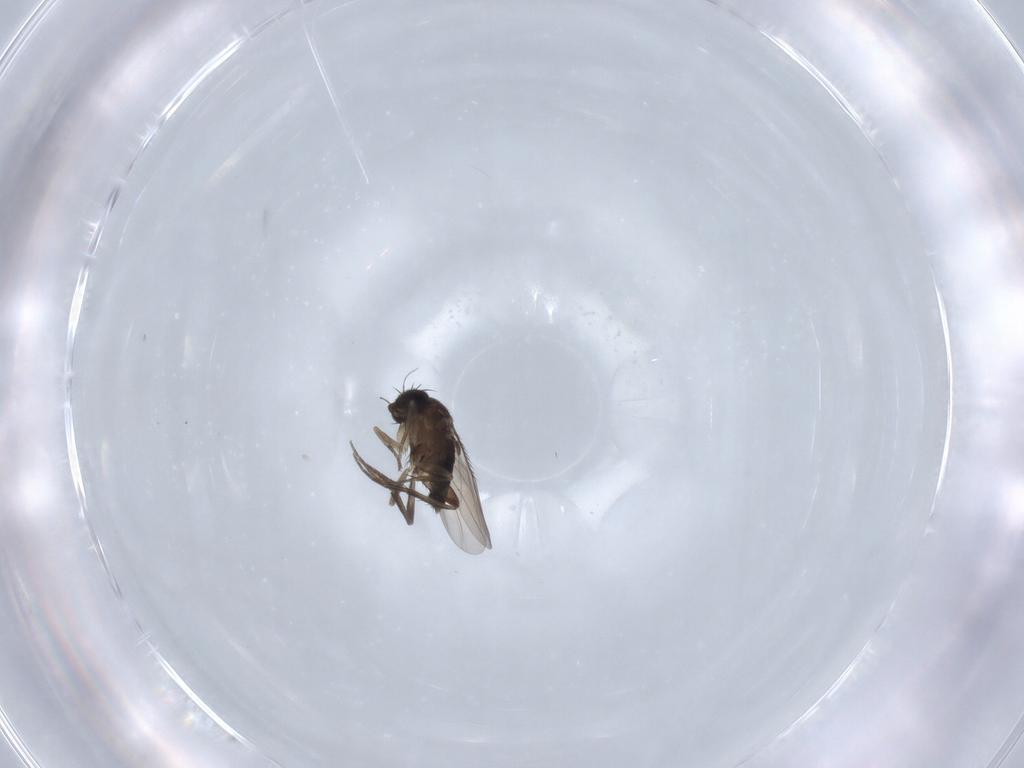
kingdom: Animalia
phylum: Arthropoda
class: Insecta
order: Diptera
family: Phoridae
